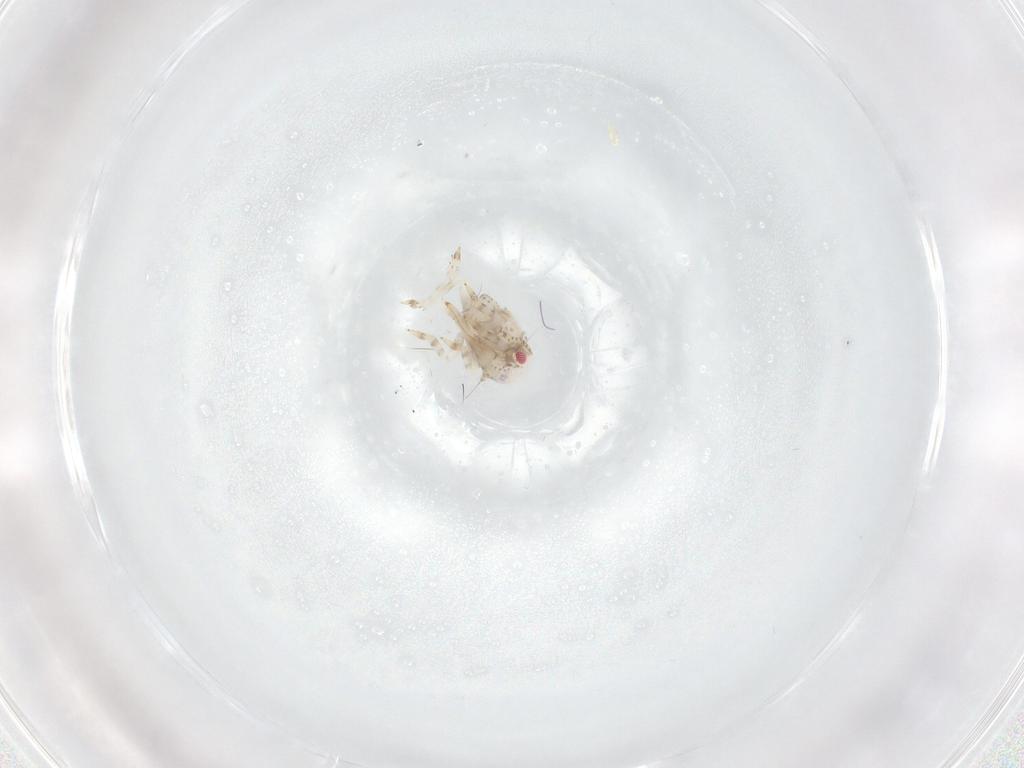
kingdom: Animalia
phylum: Arthropoda
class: Insecta
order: Hemiptera
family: Acanaloniidae
